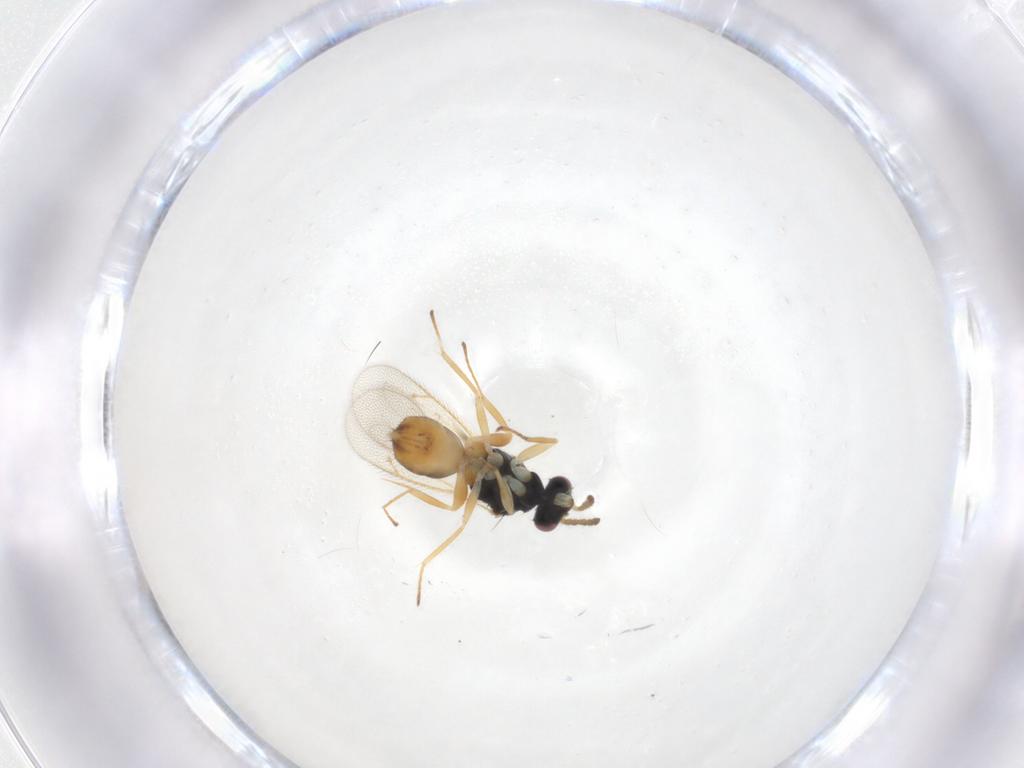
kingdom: Animalia
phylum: Arthropoda
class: Insecta
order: Hymenoptera
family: Eulophidae
